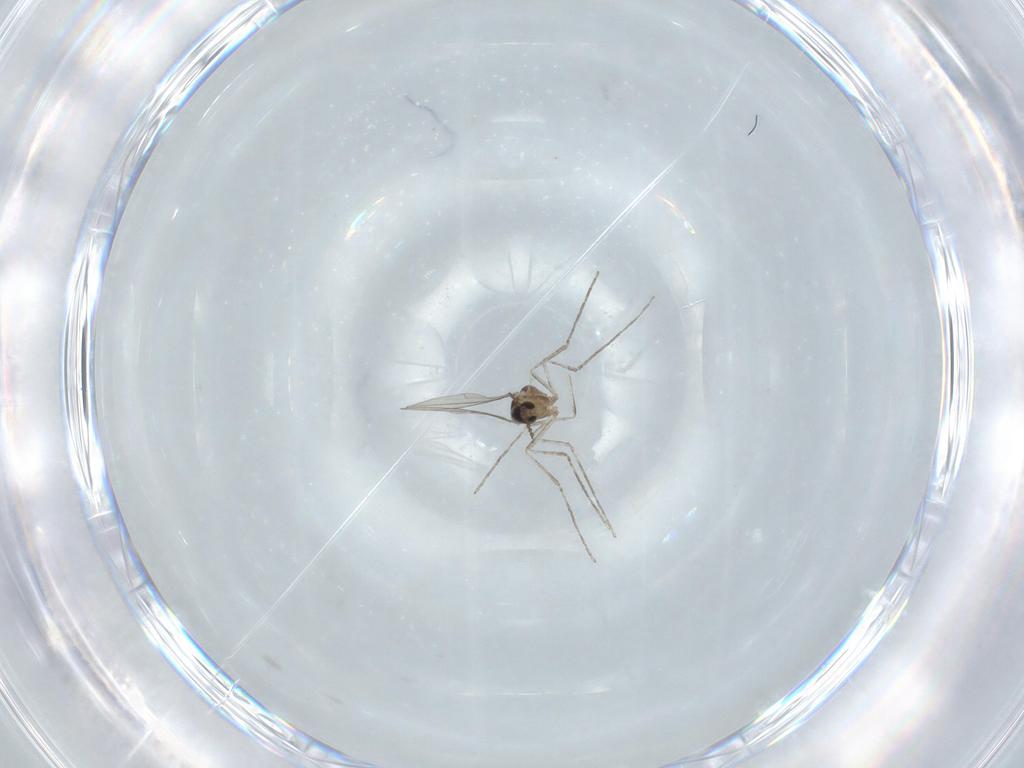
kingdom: Animalia
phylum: Arthropoda
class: Insecta
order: Diptera
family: Cecidomyiidae
